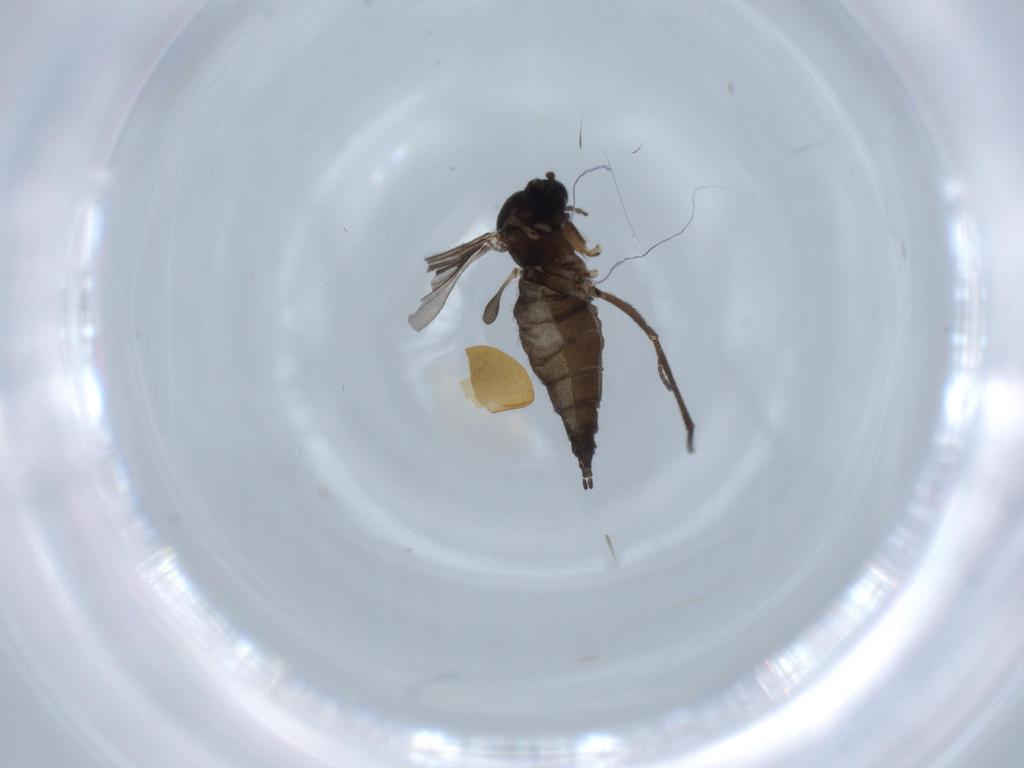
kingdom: Animalia
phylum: Arthropoda
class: Insecta
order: Diptera
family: Sciaridae
